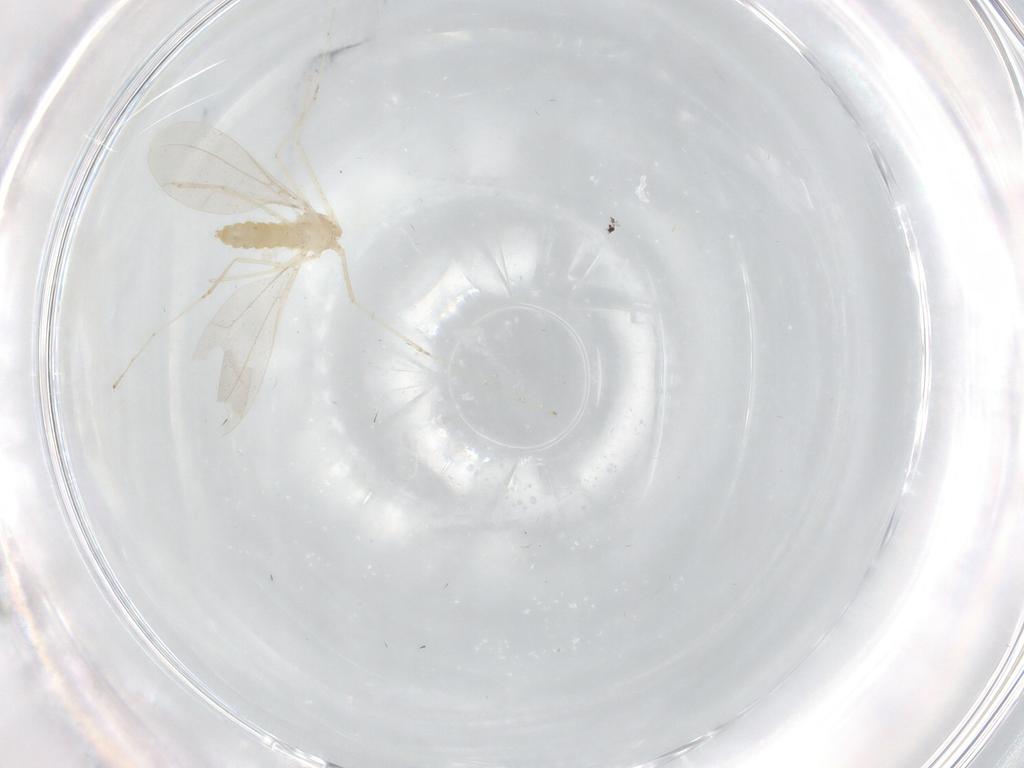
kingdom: Animalia
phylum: Arthropoda
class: Insecta
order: Diptera
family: Cecidomyiidae
